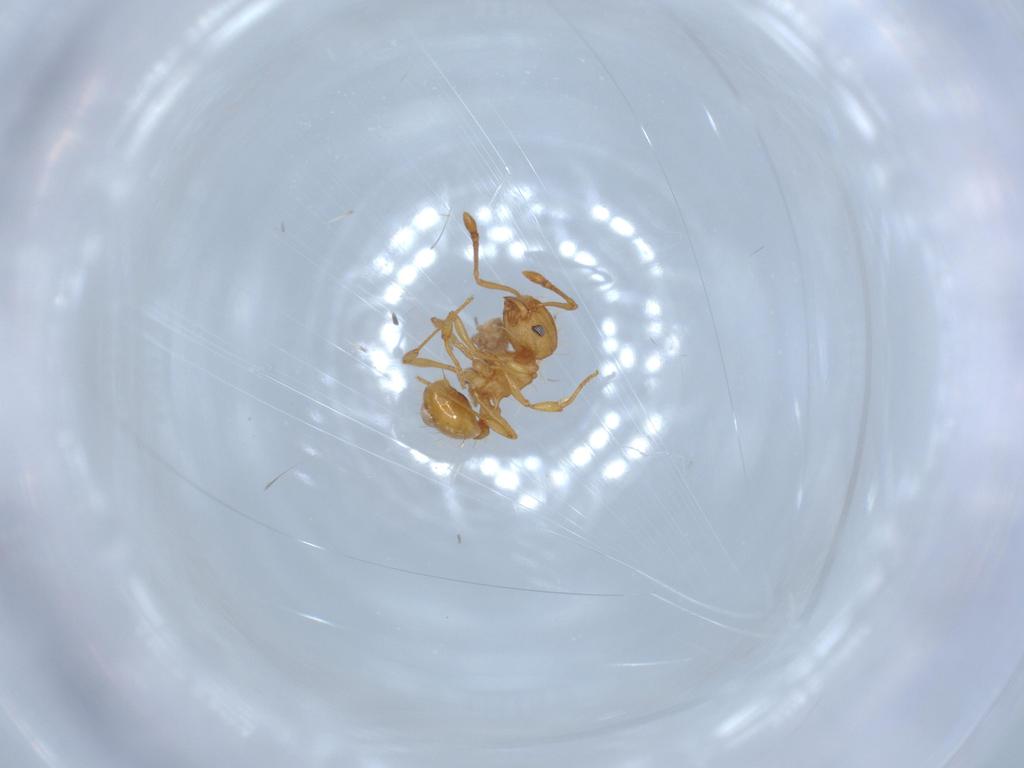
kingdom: Animalia
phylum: Arthropoda
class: Insecta
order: Hymenoptera
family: Formicidae
